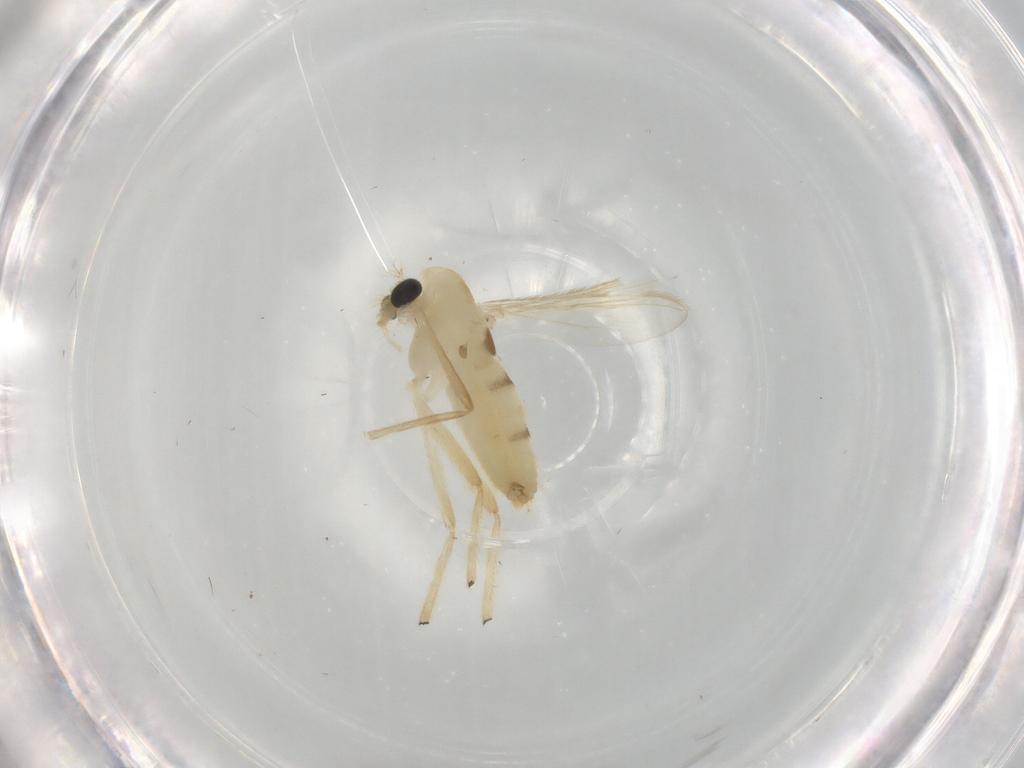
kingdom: Animalia
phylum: Arthropoda
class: Insecta
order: Diptera
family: Chironomidae
